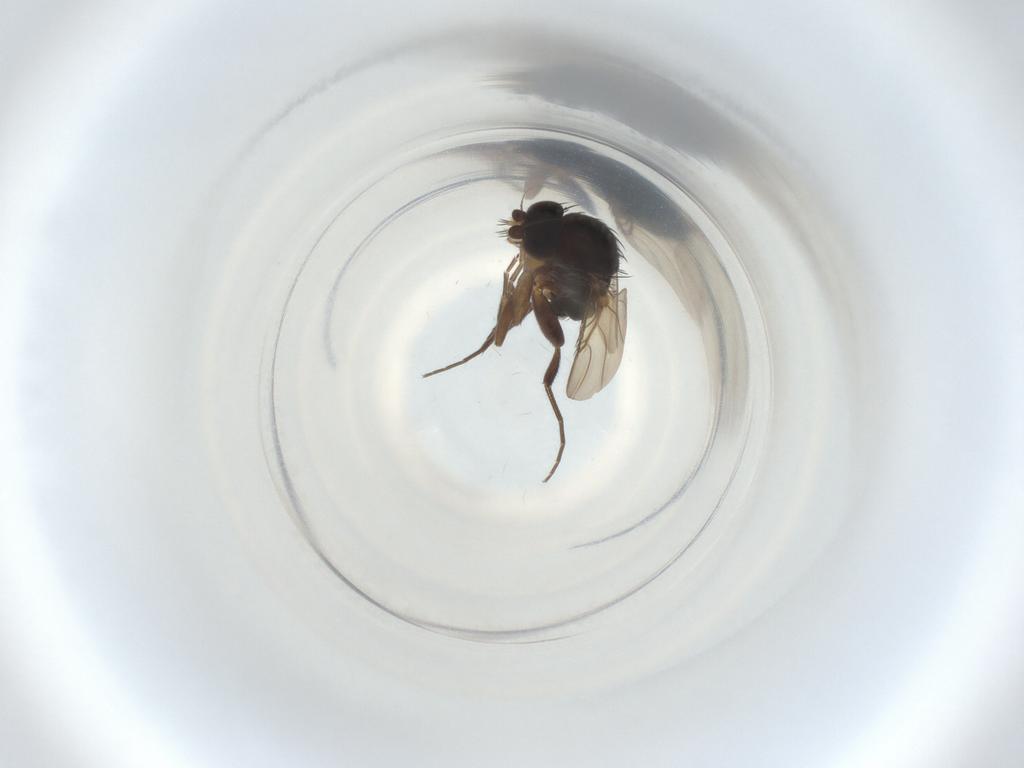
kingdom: Animalia
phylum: Arthropoda
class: Insecta
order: Diptera
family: Phoridae
